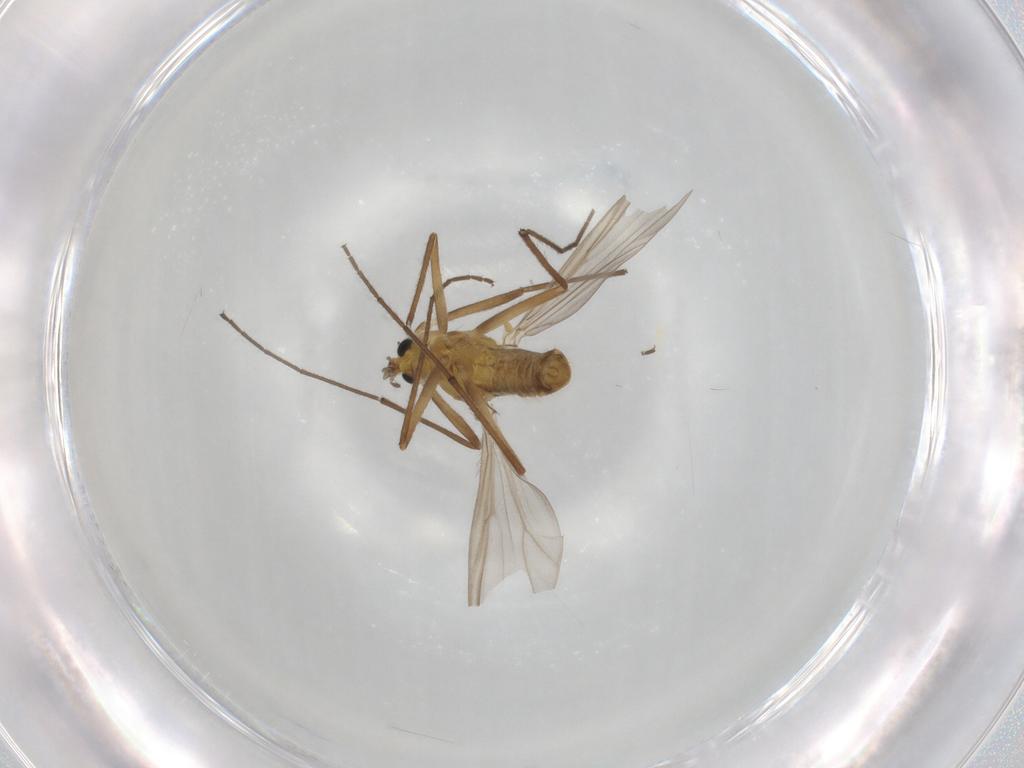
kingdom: Animalia
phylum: Arthropoda
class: Insecta
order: Diptera
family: Chironomidae
